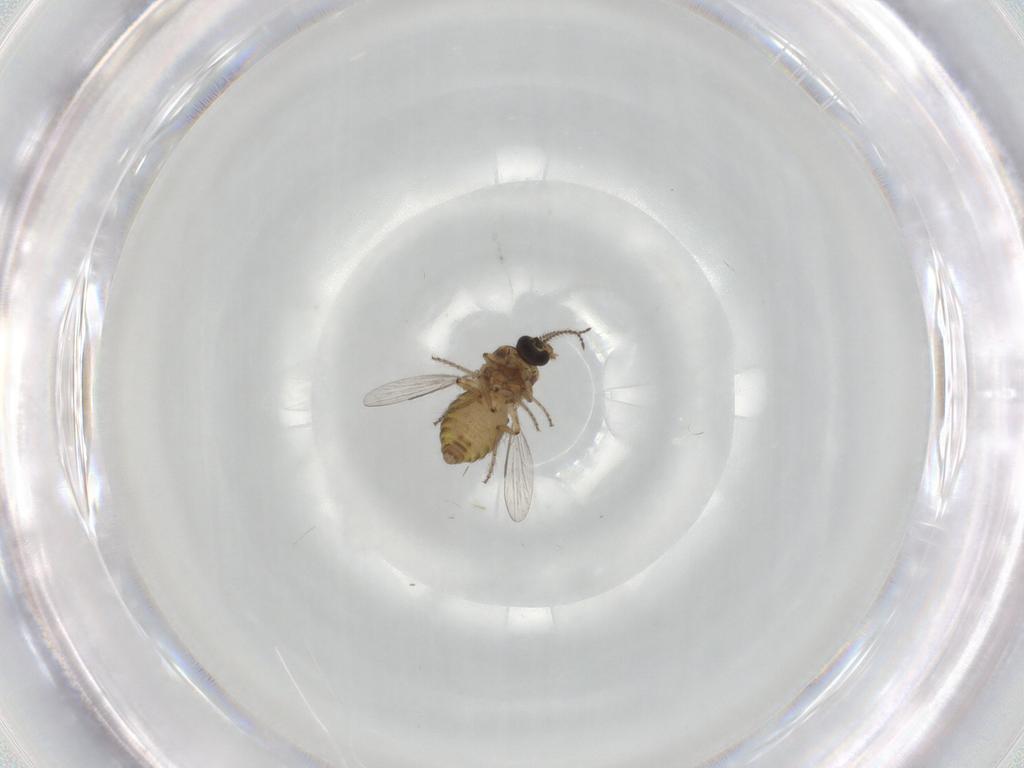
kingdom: Animalia
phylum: Arthropoda
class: Insecta
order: Diptera
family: Ceratopogonidae
